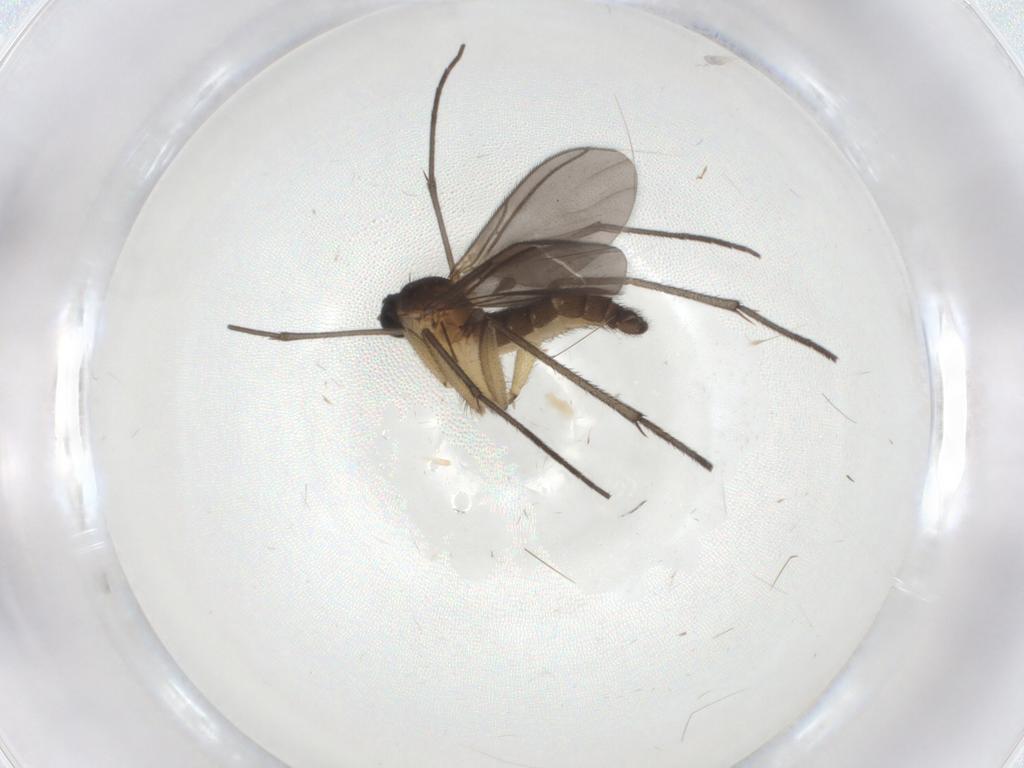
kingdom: Animalia
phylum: Arthropoda
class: Insecta
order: Diptera
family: Sciaridae
